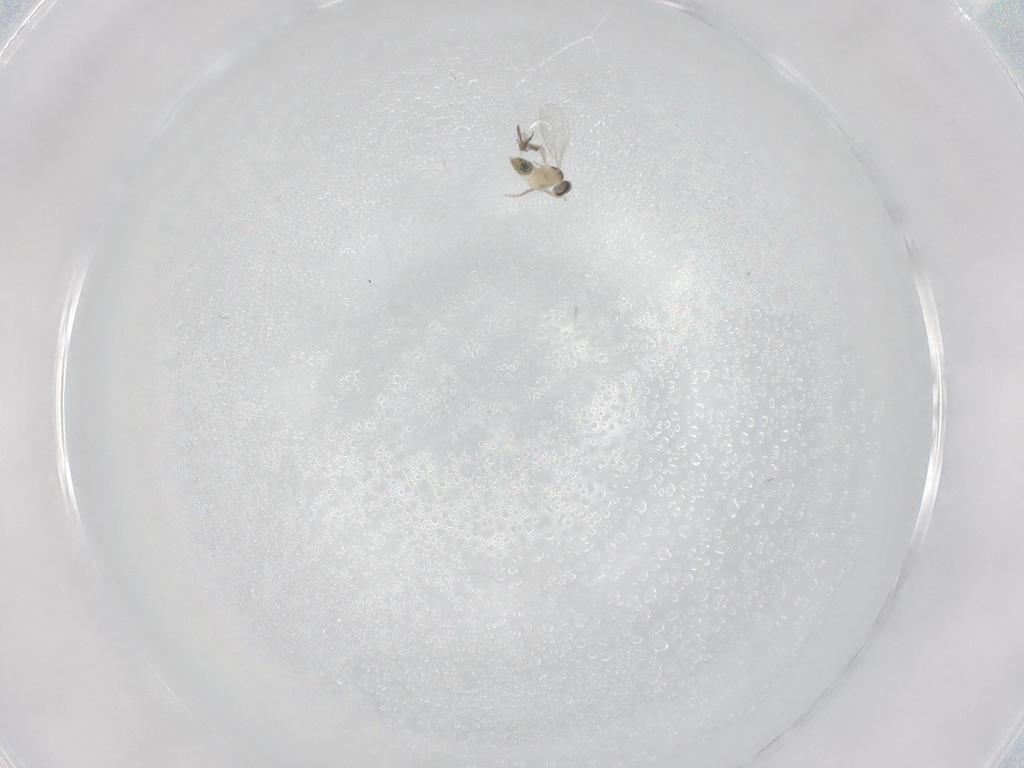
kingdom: Animalia
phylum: Arthropoda
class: Insecta
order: Diptera
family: Cecidomyiidae
